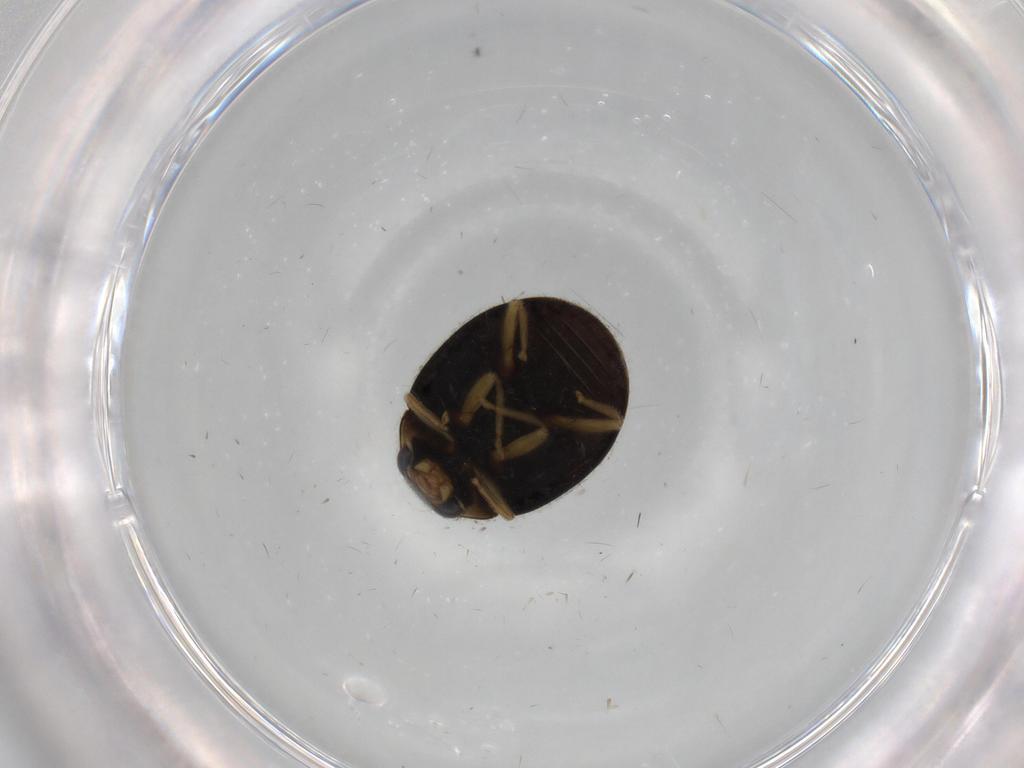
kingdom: Animalia
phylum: Arthropoda
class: Insecta
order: Coleoptera
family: Coccinellidae
